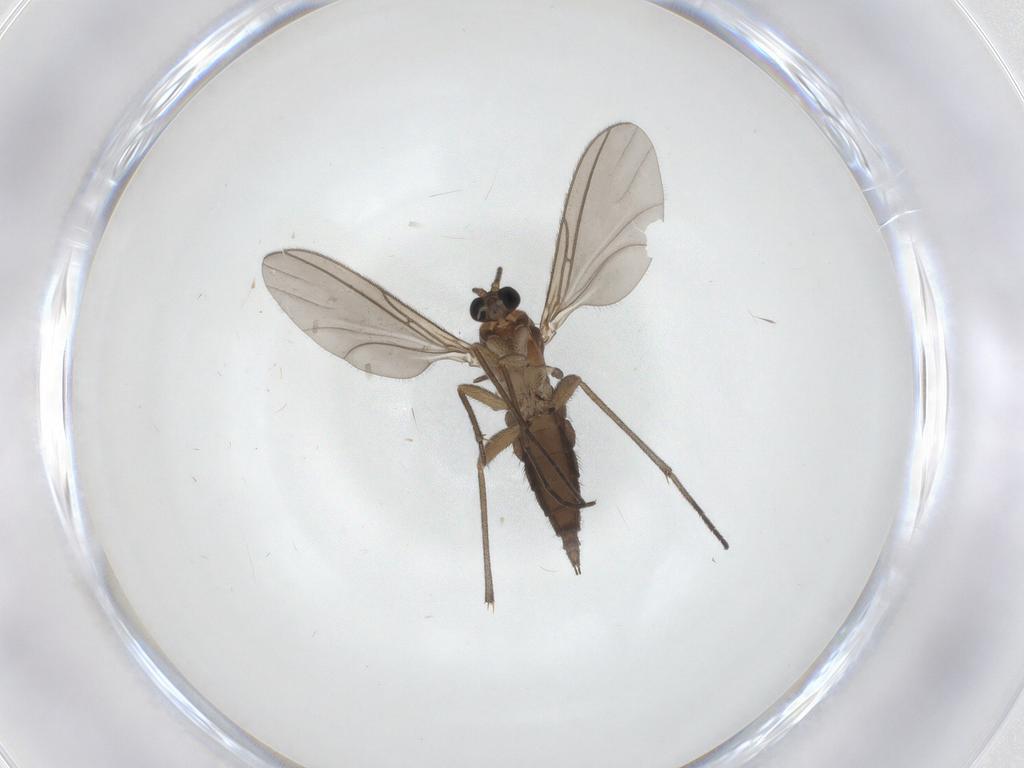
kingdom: Animalia
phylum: Arthropoda
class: Insecta
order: Diptera
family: Sciaridae
